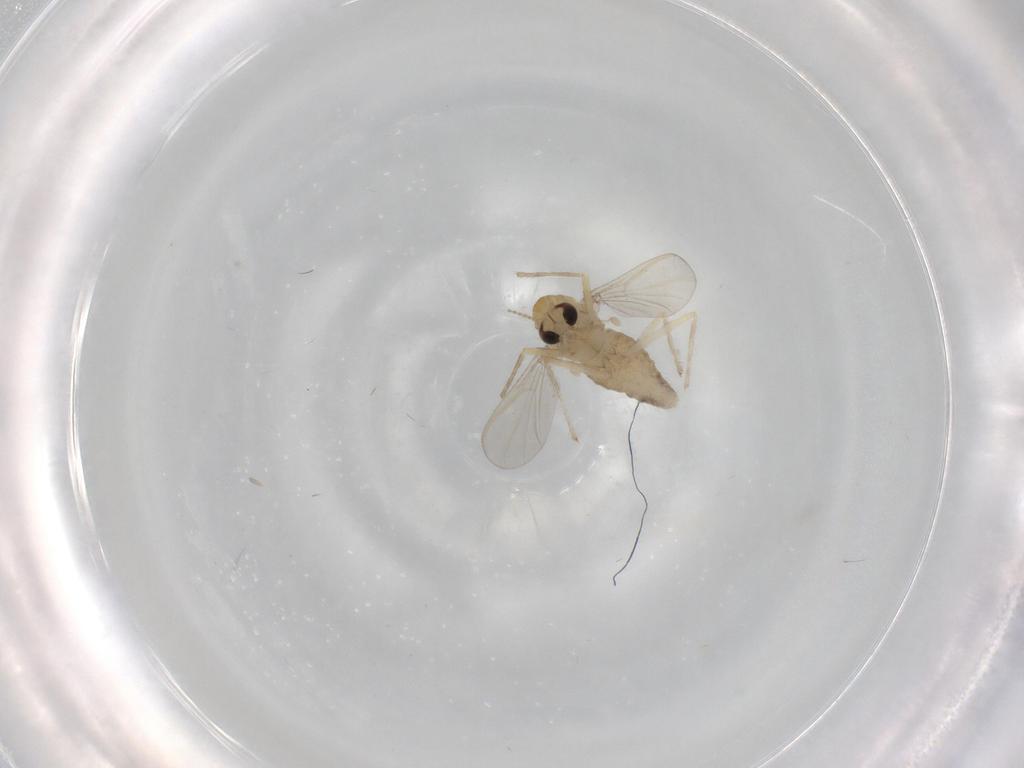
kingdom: Animalia
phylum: Arthropoda
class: Insecta
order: Diptera
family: Chironomidae
